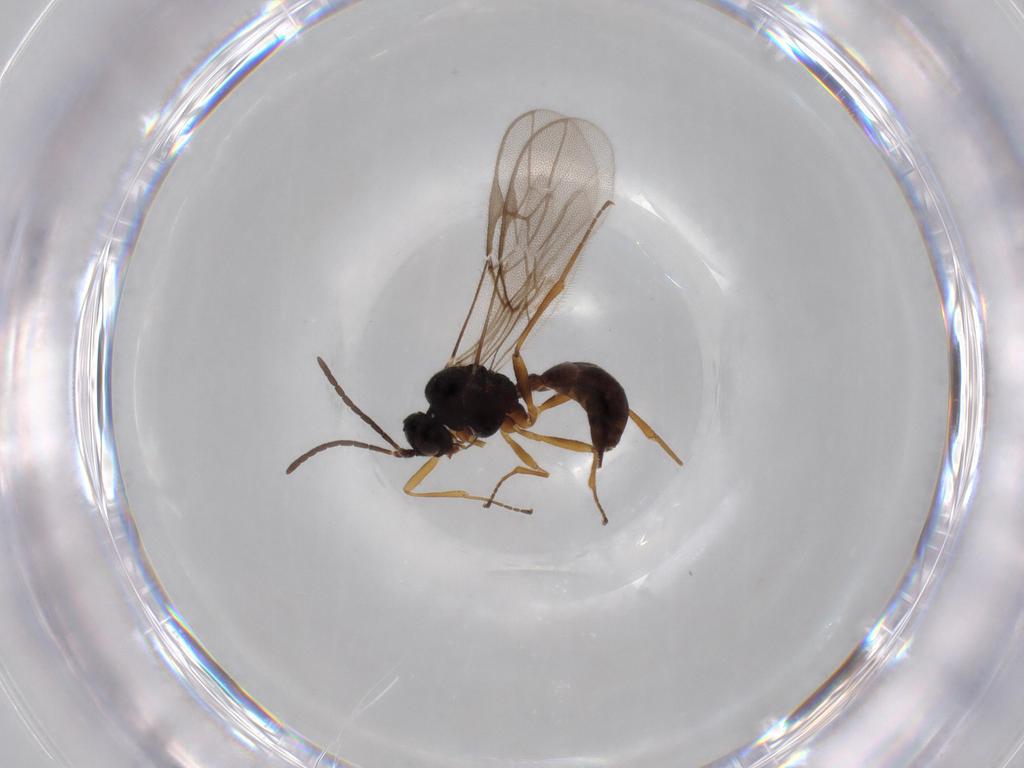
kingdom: Animalia
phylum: Arthropoda
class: Insecta
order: Hymenoptera
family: Braconidae
